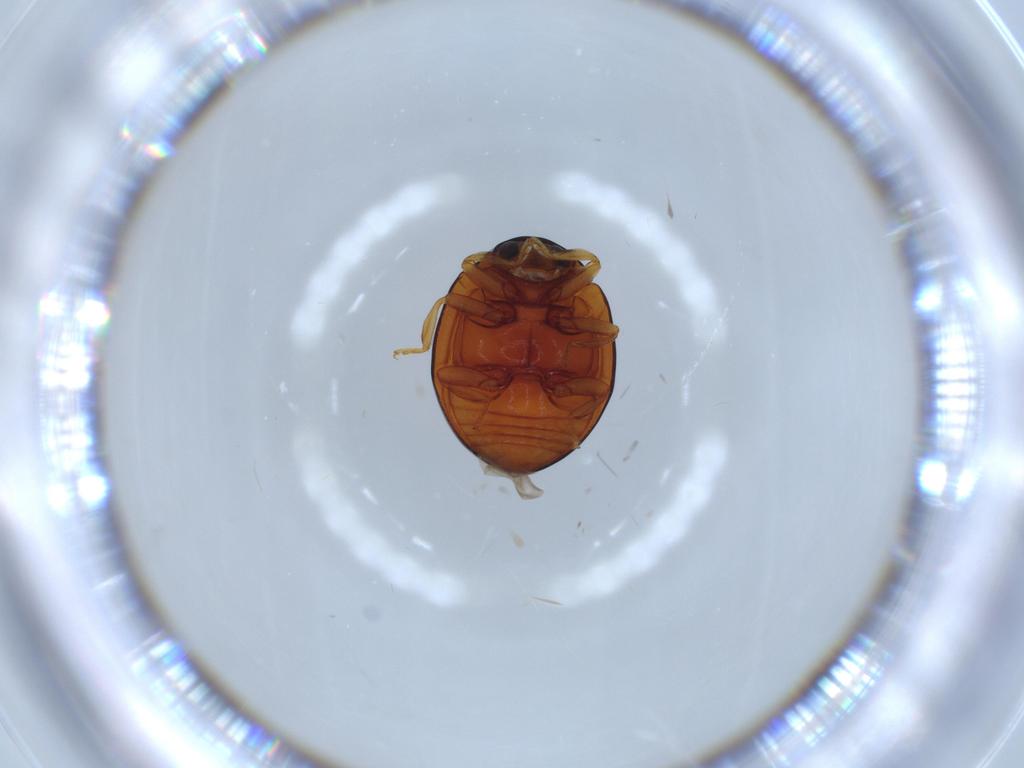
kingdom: Animalia
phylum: Arthropoda
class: Insecta
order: Coleoptera
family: Coccinellidae
